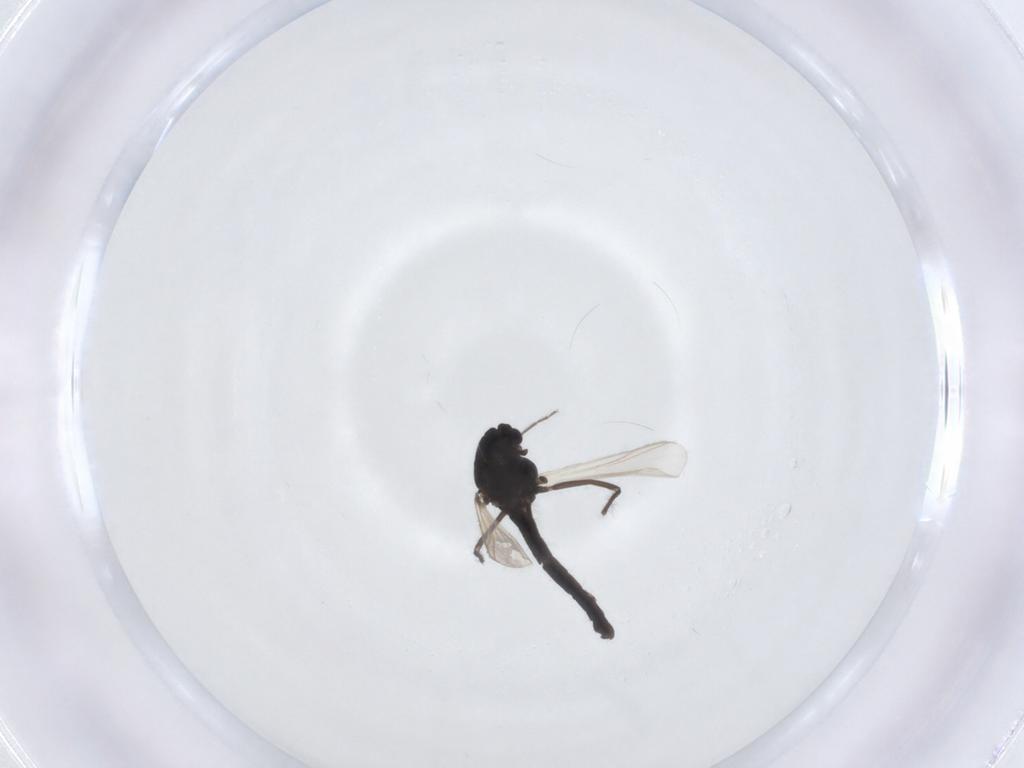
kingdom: Animalia
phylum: Arthropoda
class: Insecta
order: Diptera
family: Chironomidae
